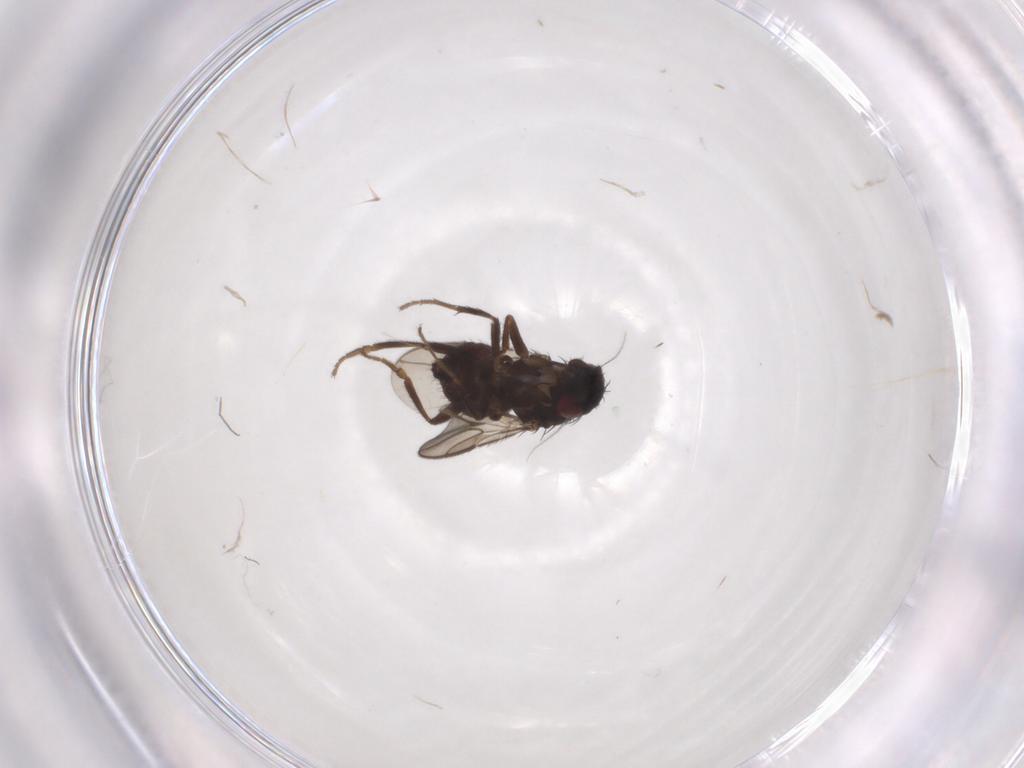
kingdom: Animalia
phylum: Arthropoda
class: Insecta
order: Diptera
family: Sphaeroceridae
